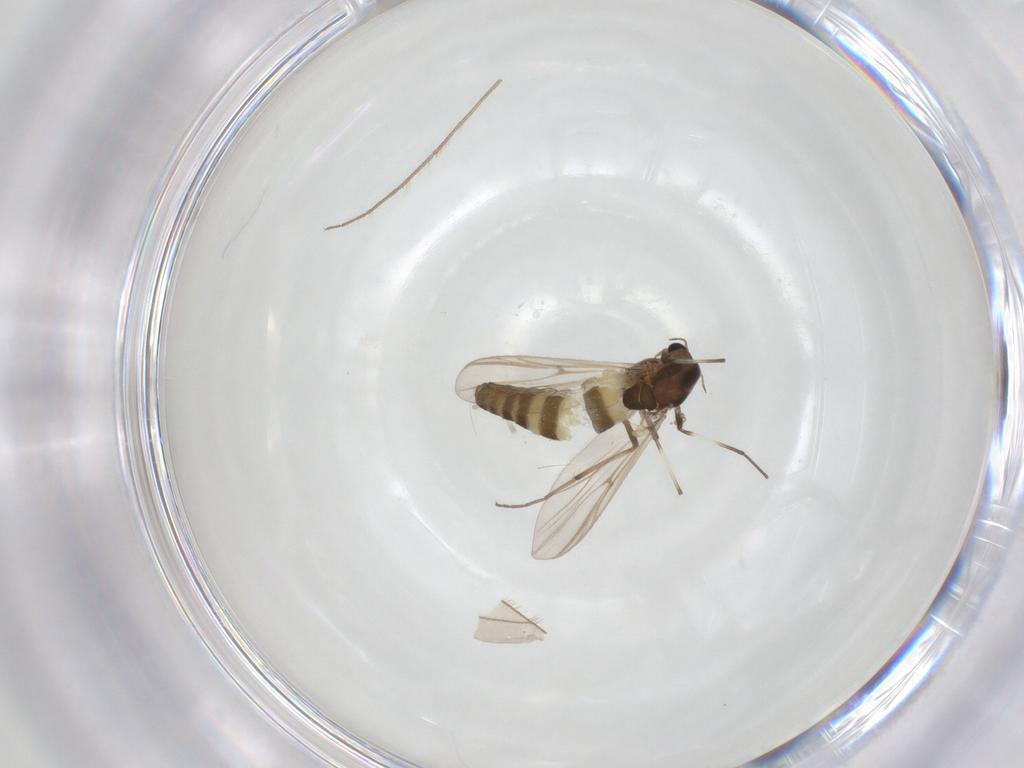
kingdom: Animalia
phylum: Arthropoda
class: Insecta
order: Diptera
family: Chironomidae
